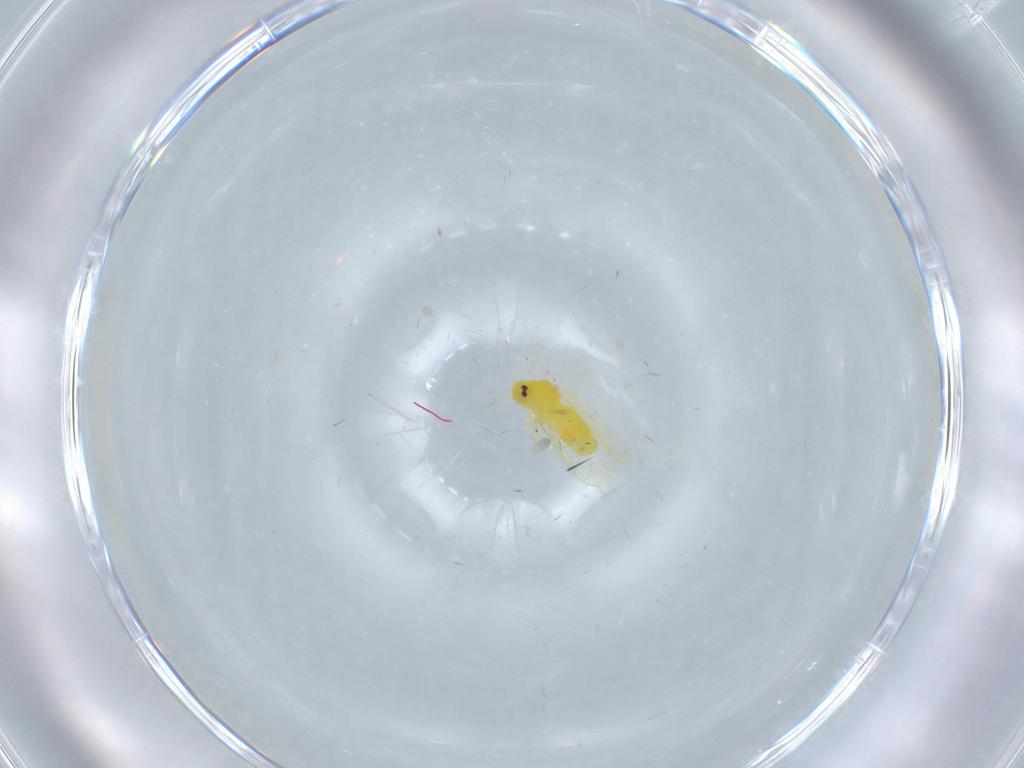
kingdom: Animalia
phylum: Arthropoda
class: Insecta
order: Hemiptera
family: Aleyrodidae
